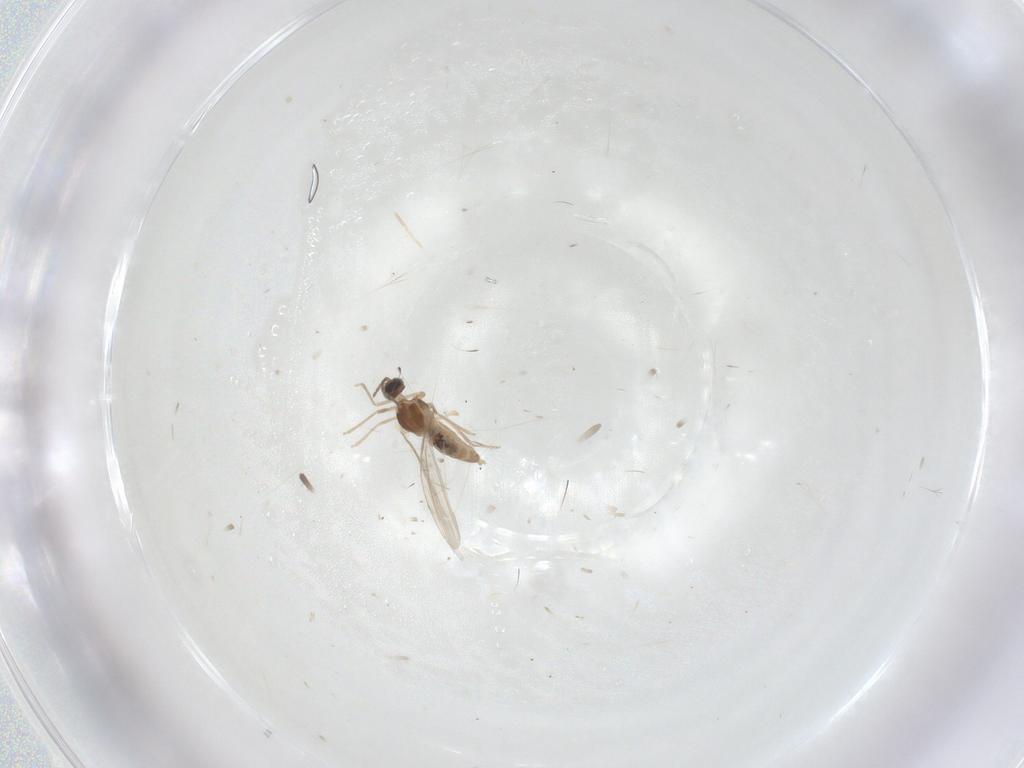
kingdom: Animalia
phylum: Arthropoda
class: Insecta
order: Diptera
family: Cecidomyiidae
